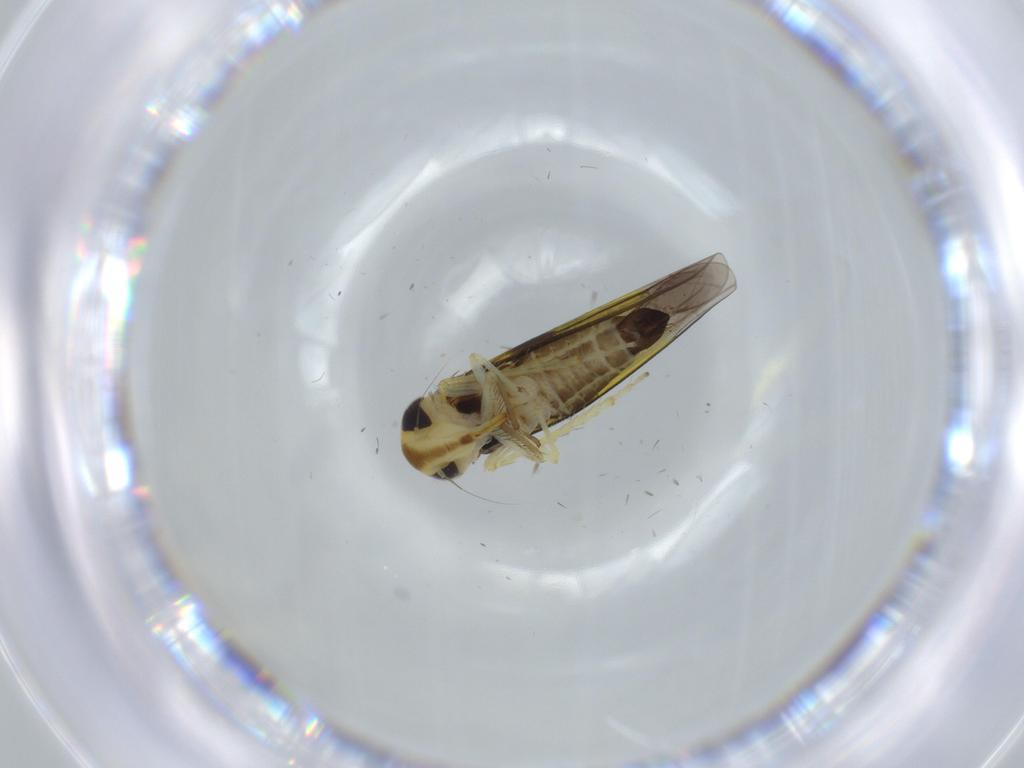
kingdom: Animalia
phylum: Arthropoda
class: Insecta
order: Hemiptera
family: Cicadellidae
